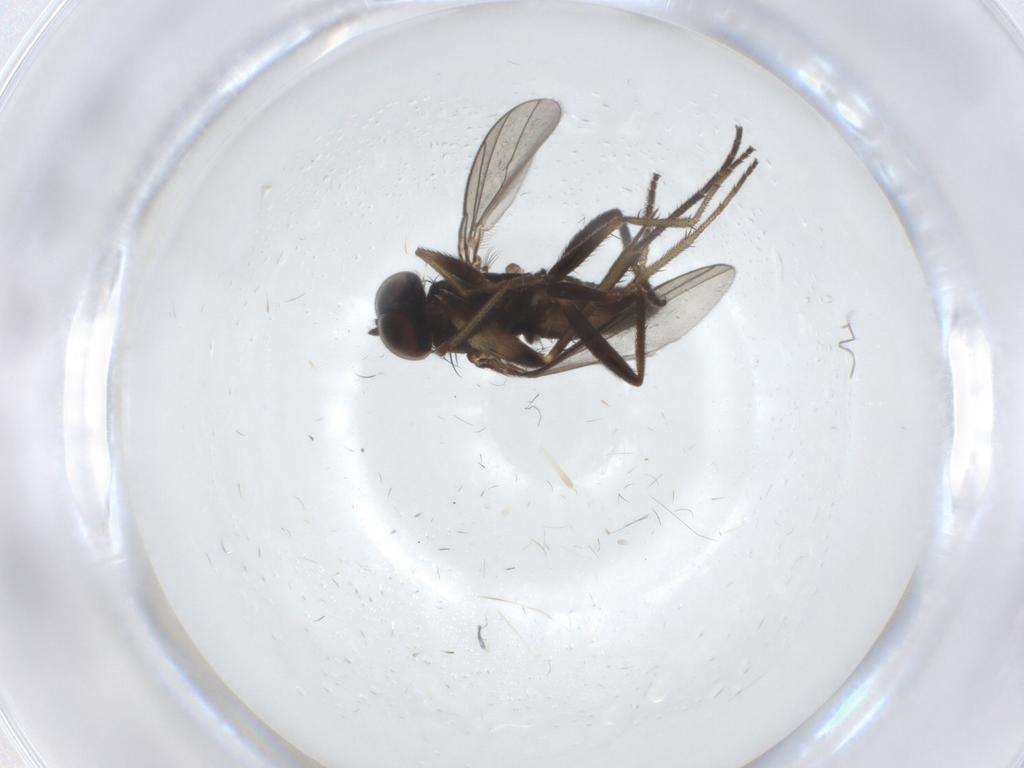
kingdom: Animalia
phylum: Arthropoda
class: Insecta
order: Diptera
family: Dolichopodidae
